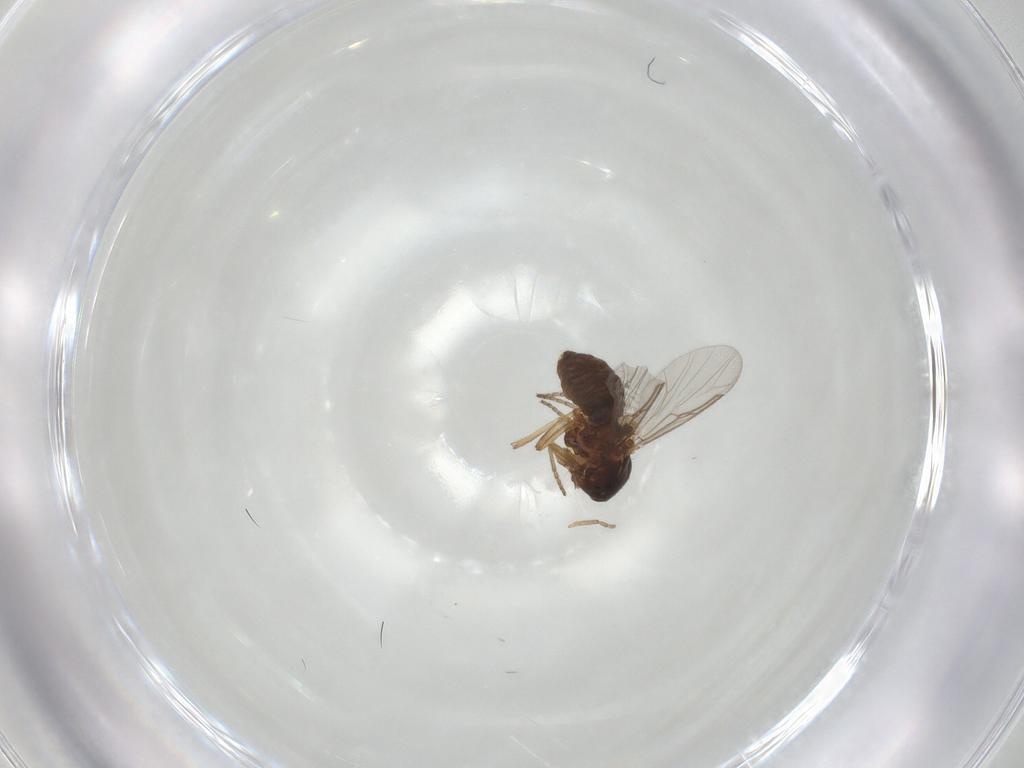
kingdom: Animalia
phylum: Arthropoda
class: Insecta
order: Diptera
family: Ceratopogonidae
